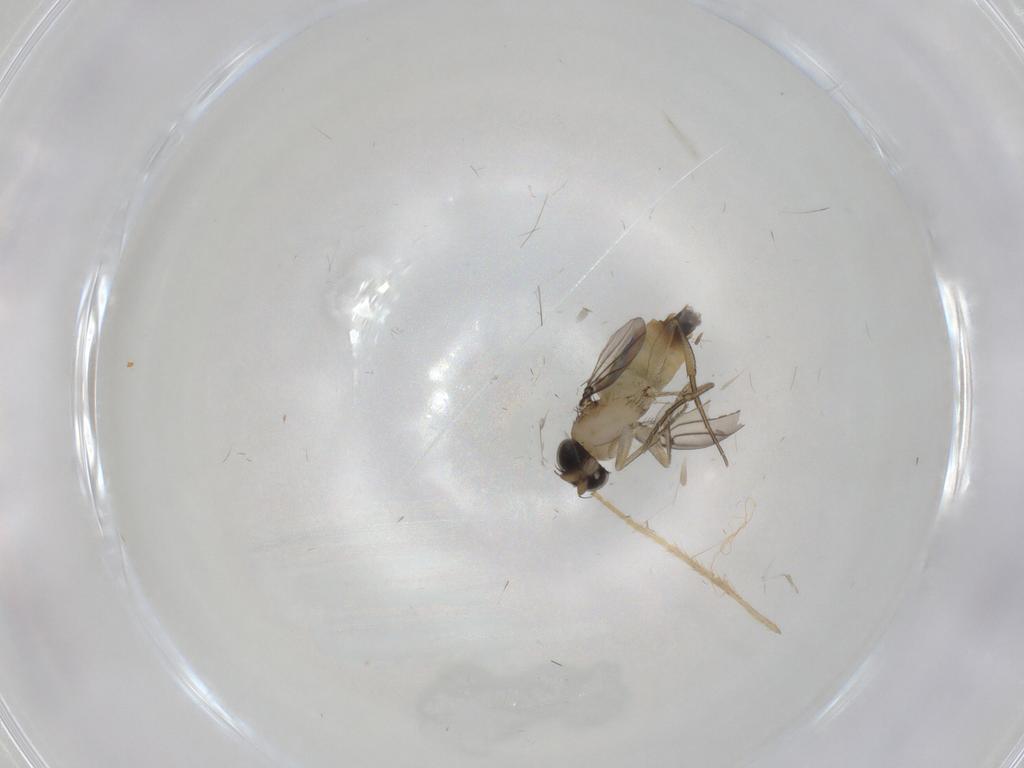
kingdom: Animalia
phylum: Arthropoda
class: Insecta
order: Diptera
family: Phoridae
